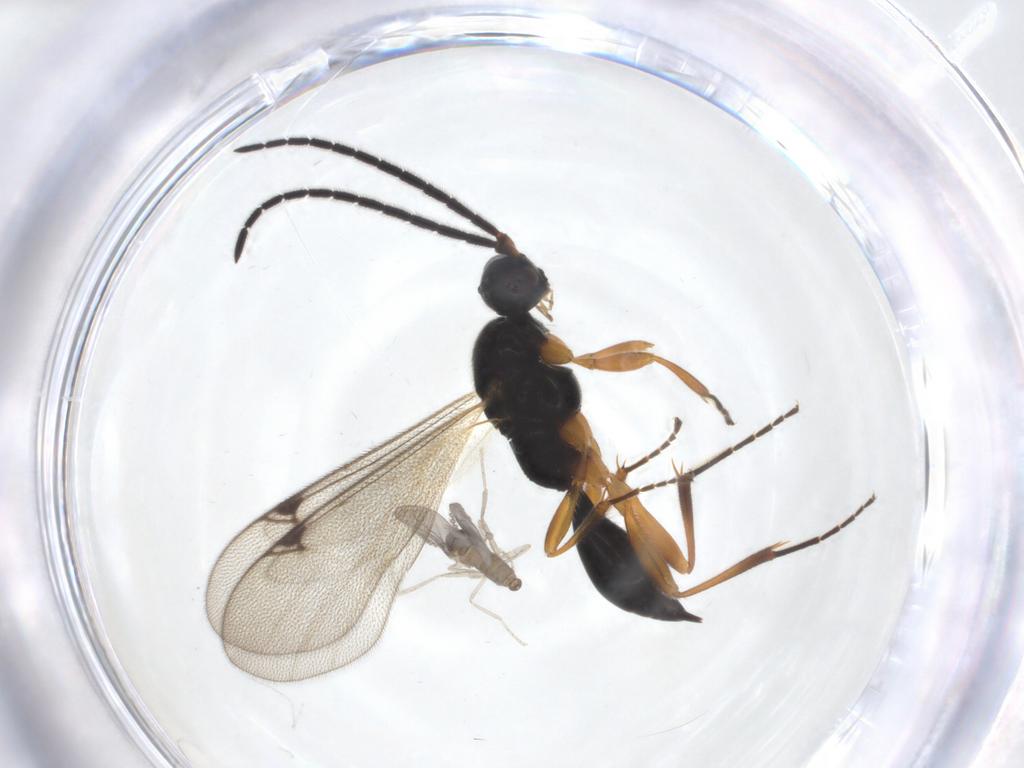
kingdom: Animalia
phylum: Arthropoda
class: Insecta
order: Diptera
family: Cecidomyiidae
